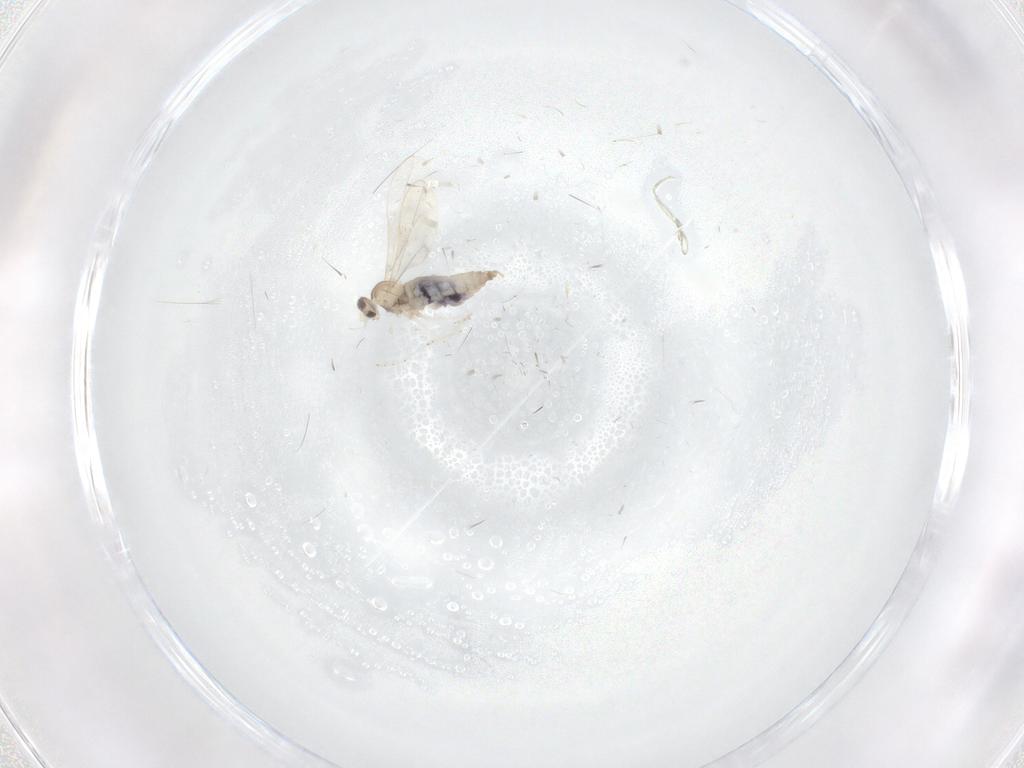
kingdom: Animalia
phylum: Arthropoda
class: Insecta
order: Diptera
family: Cecidomyiidae
